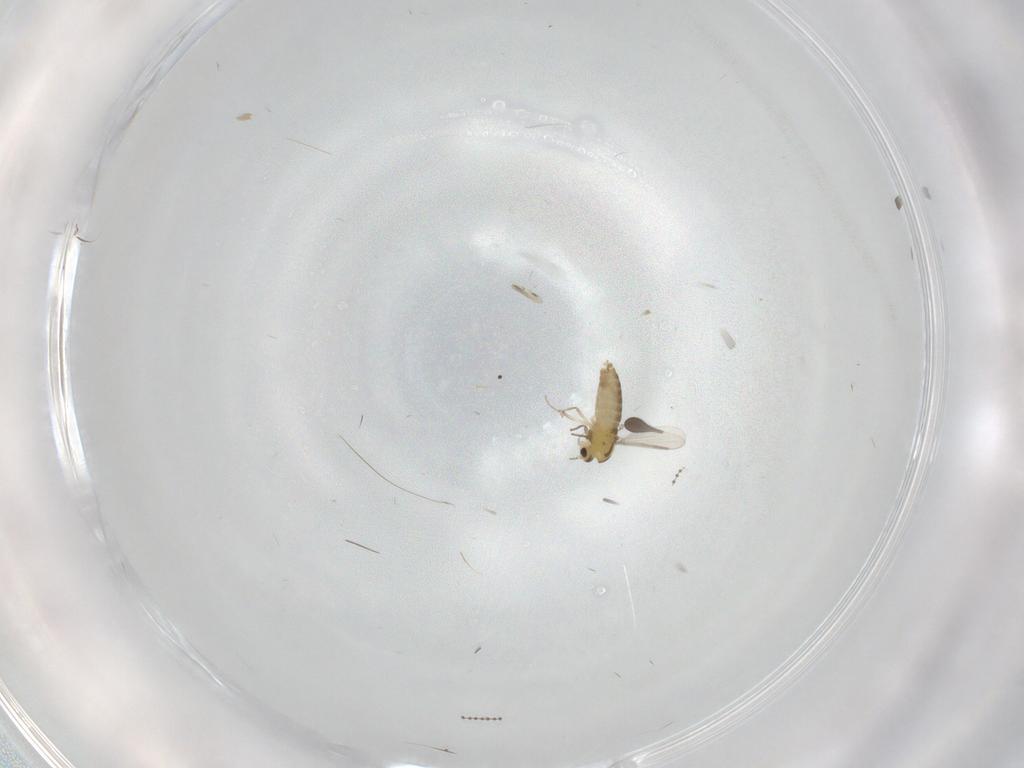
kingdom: Animalia
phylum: Arthropoda
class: Insecta
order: Diptera
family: Cecidomyiidae
